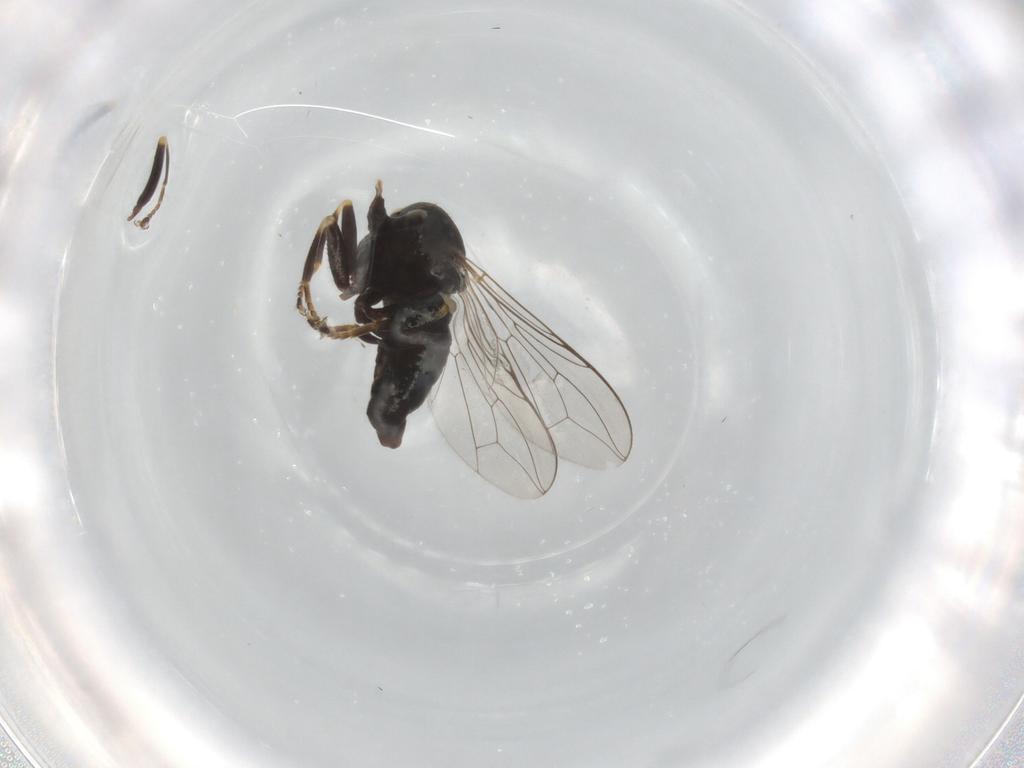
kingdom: Animalia
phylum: Arthropoda
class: Insecta
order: Diptera
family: Pipunculidae
